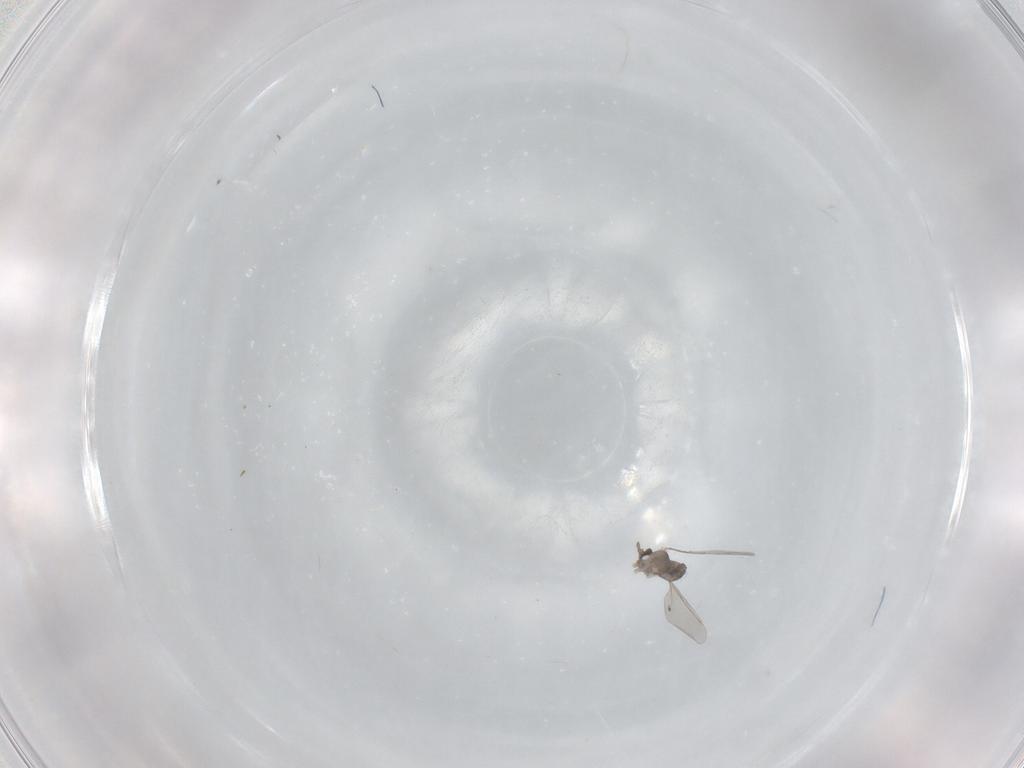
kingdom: Animalia
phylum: Arthropoda
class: Insecta
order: Diptera
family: Cecidomyiidae
